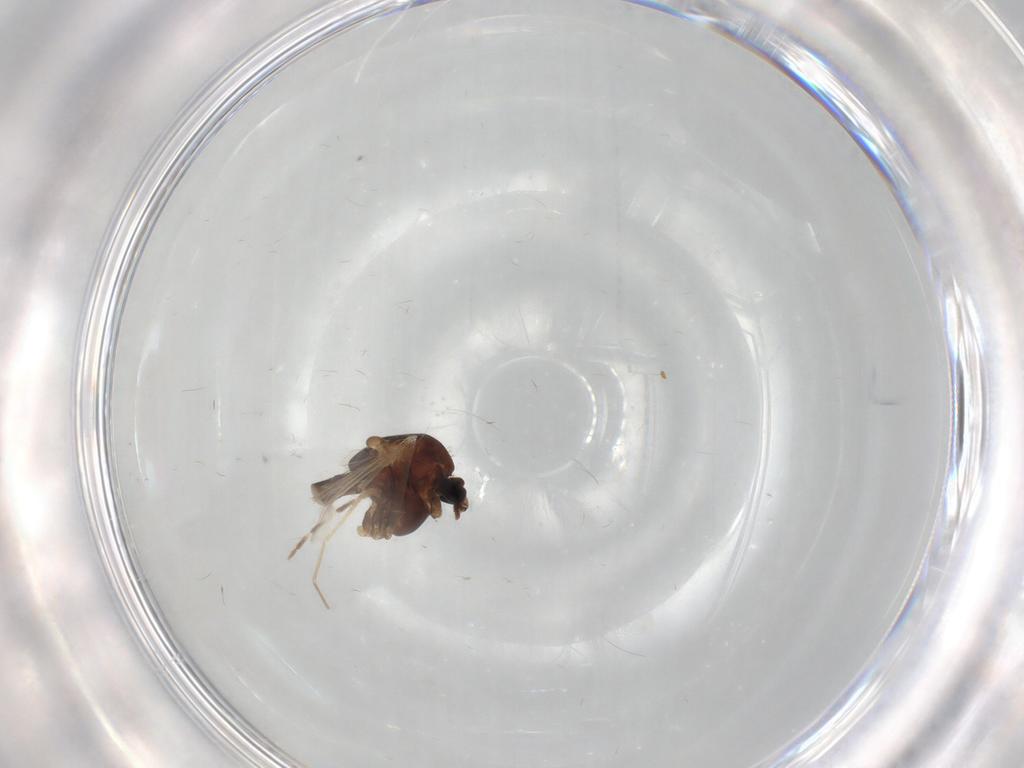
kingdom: Animalia
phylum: Arthropoda
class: Insecta
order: Diptera
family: Chironomidae
